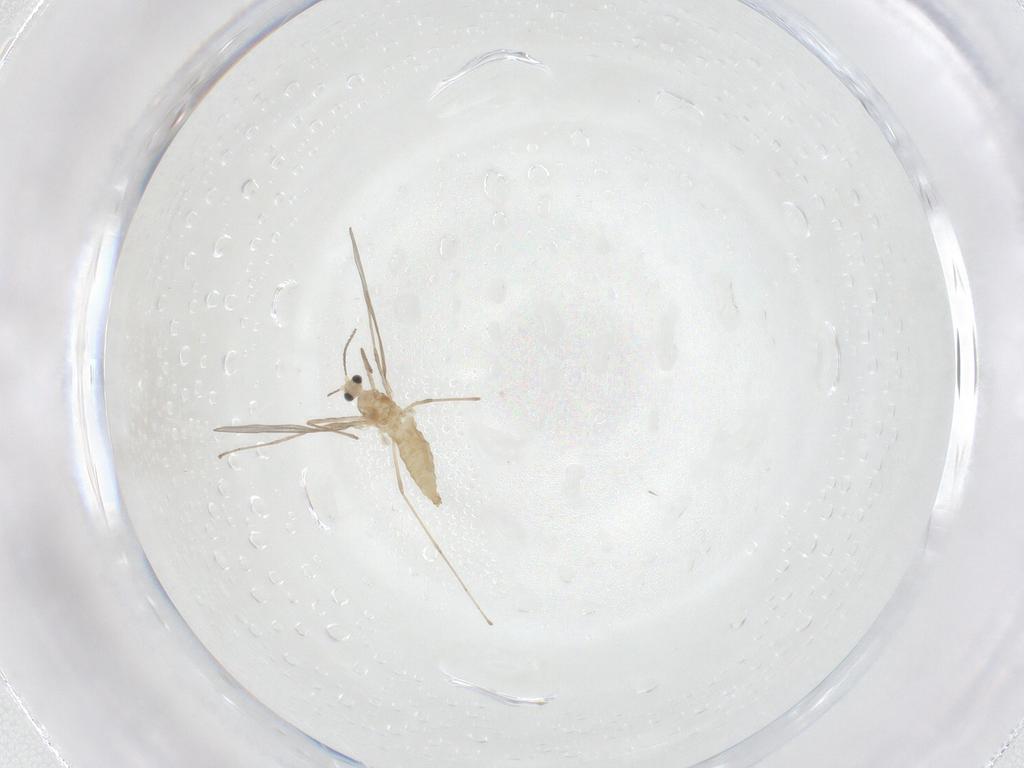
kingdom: Animalia
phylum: Arthropoda
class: Insecta
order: Diptera
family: Cecidomyiidae
